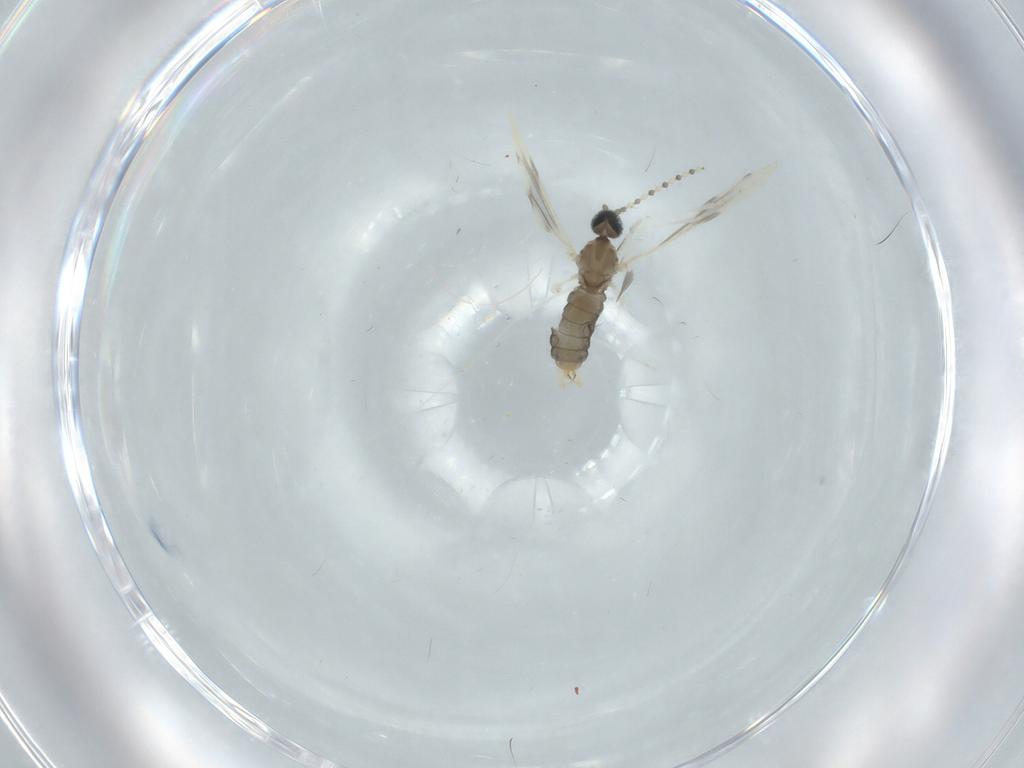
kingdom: Animalia
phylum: Arthropoda
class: Insecta
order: Diptera
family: Cecidomyiidae
